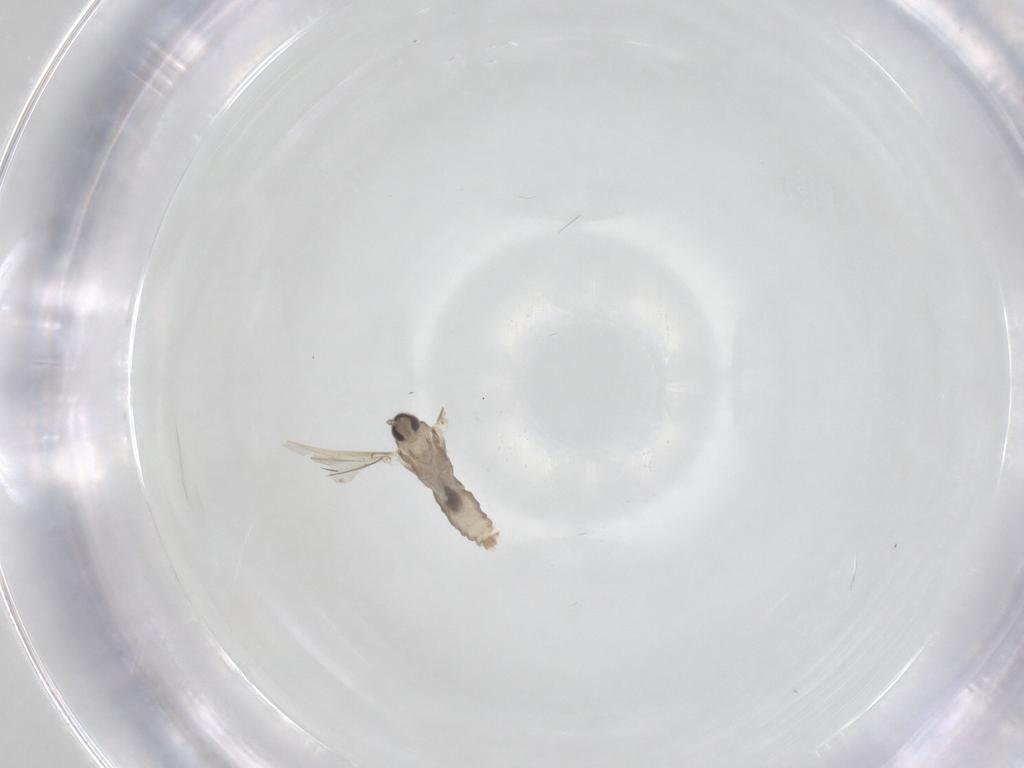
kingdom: Animalia
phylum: Arthropoda
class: Insecta
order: Diptera
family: Cecidomyiidae
